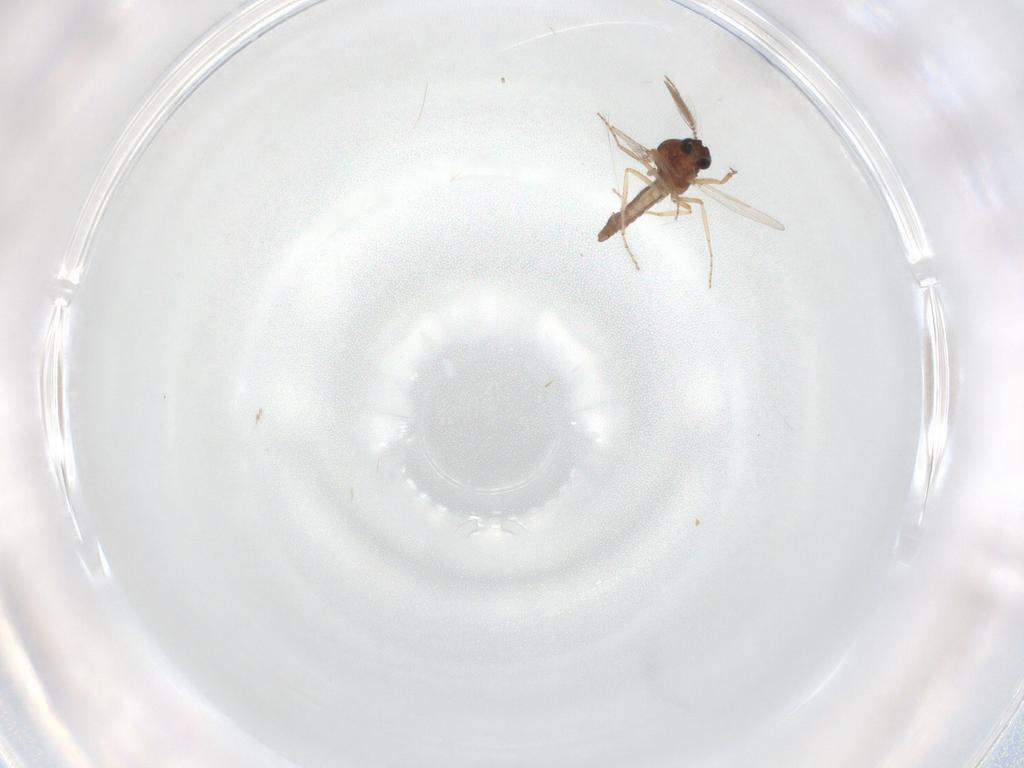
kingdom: Animalia
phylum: Arthropoda
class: Insecta
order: Diptera
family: Ceratopogonidae
